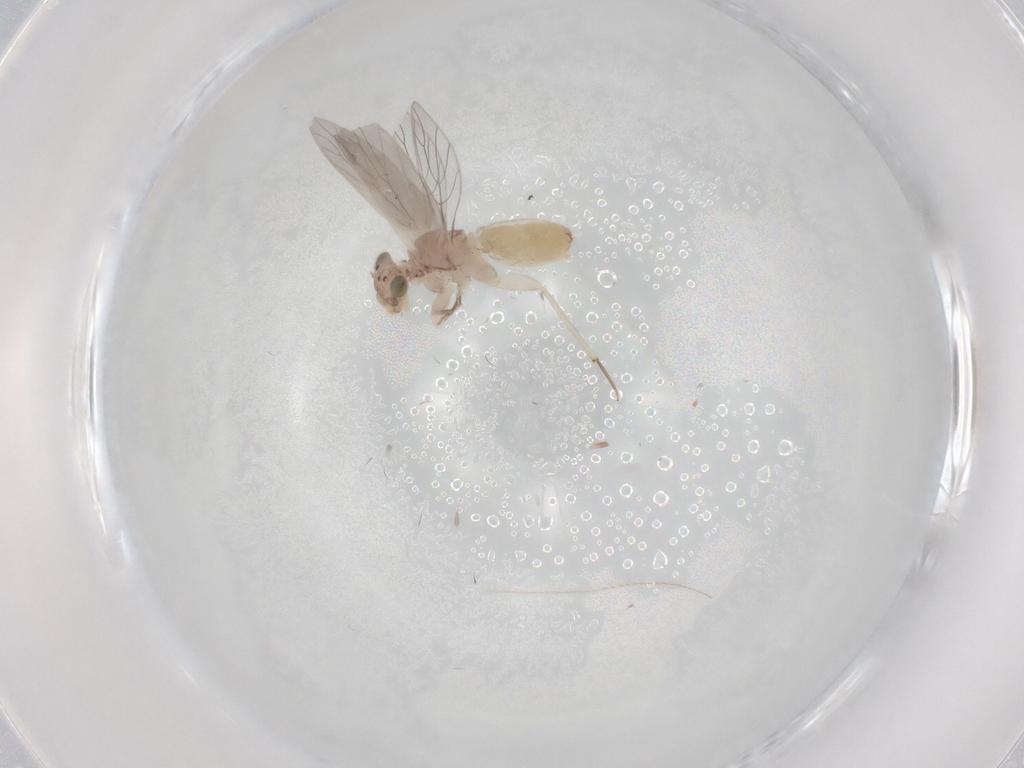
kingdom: Animalia
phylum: Arthropoda
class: Insecta
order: Psocodea
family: Lepidopsocidae
